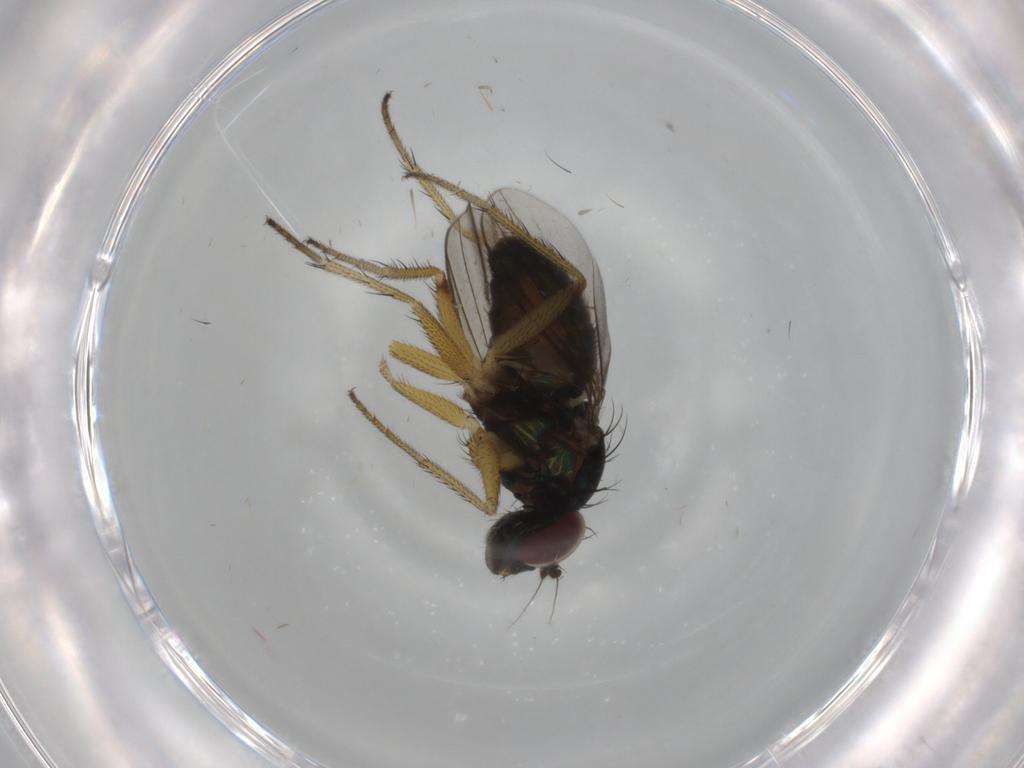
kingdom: Animalia
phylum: Arthropoda
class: Insecta
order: Diptera
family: Dolichopodidae
